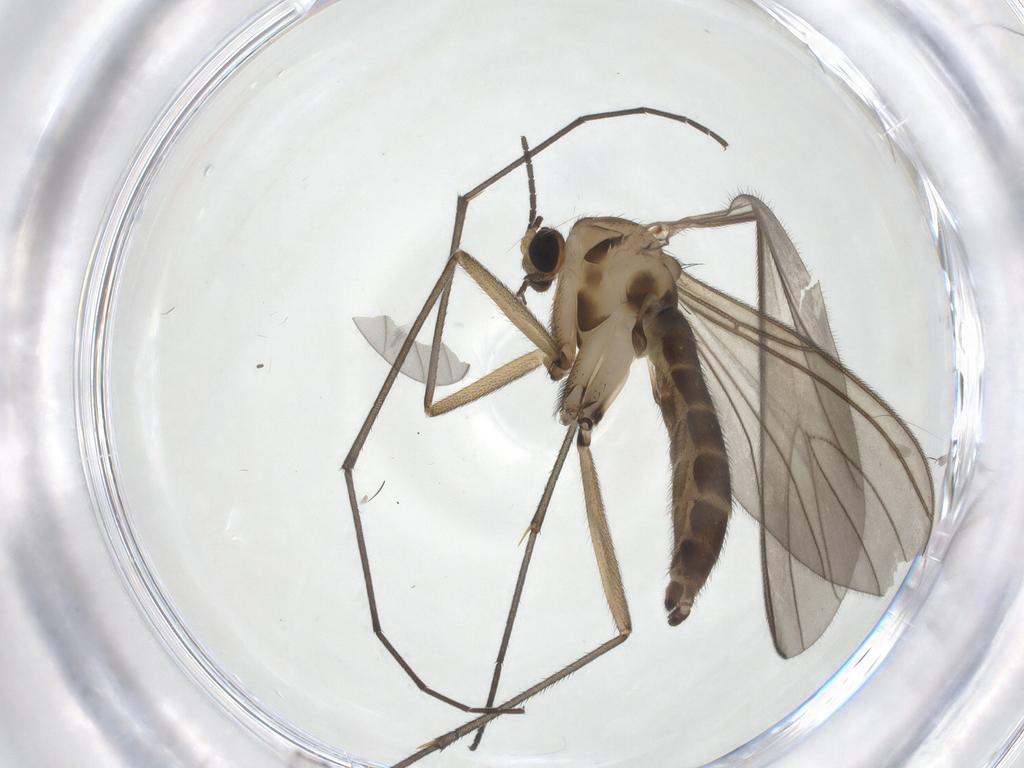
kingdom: Animalia
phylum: Arthropoda
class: Insecta
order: Diptera
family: Sciaridae
